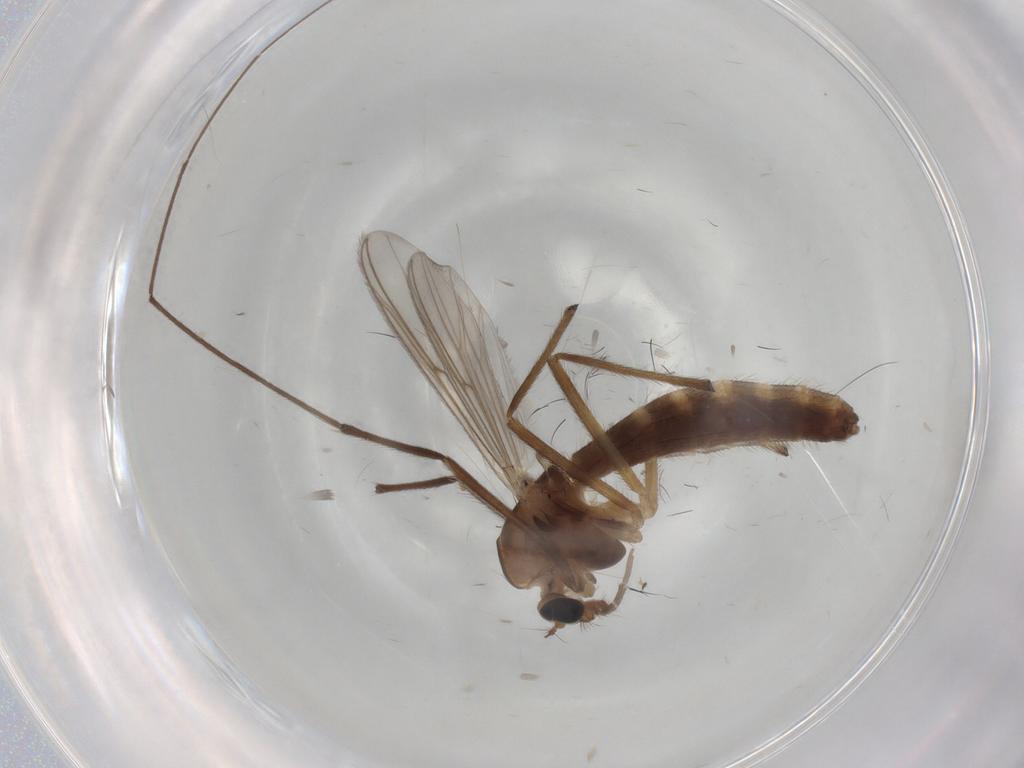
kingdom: Animalia
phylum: Arthropoda
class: Insecta
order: Diptera
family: Chironomidae
